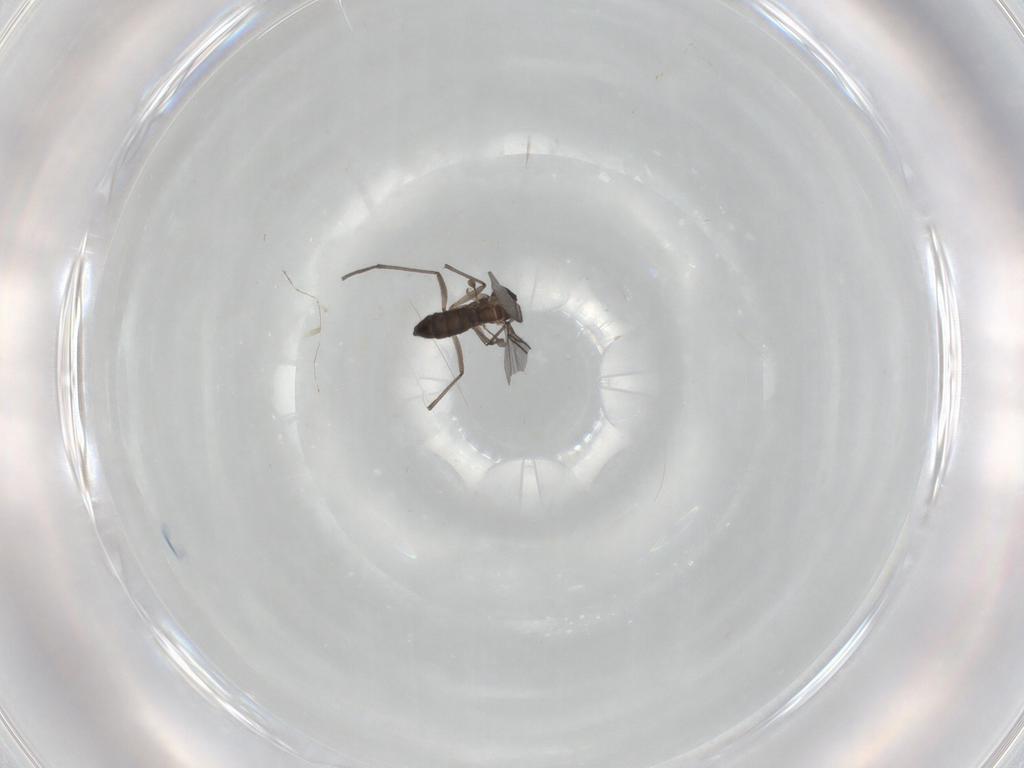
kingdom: Animalia
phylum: Arthropoda
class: Insecta
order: Diptera
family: Sciaridae
